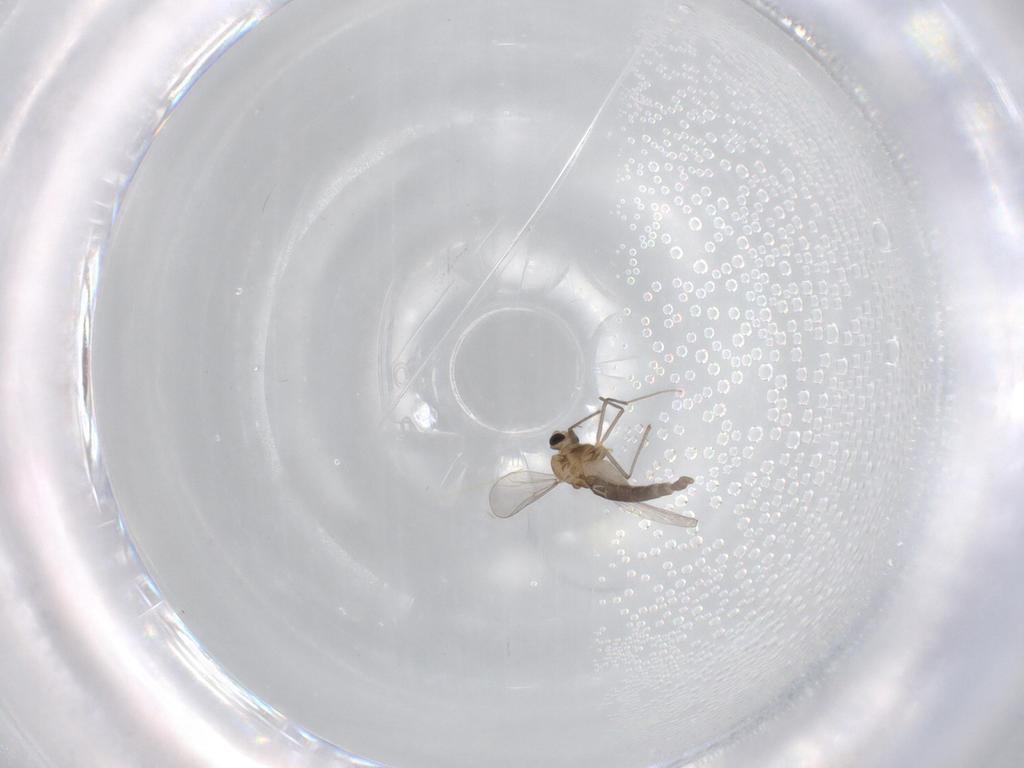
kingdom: Animalia
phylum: Arthropoda
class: Insecta
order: Diptera
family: Chironomidae
